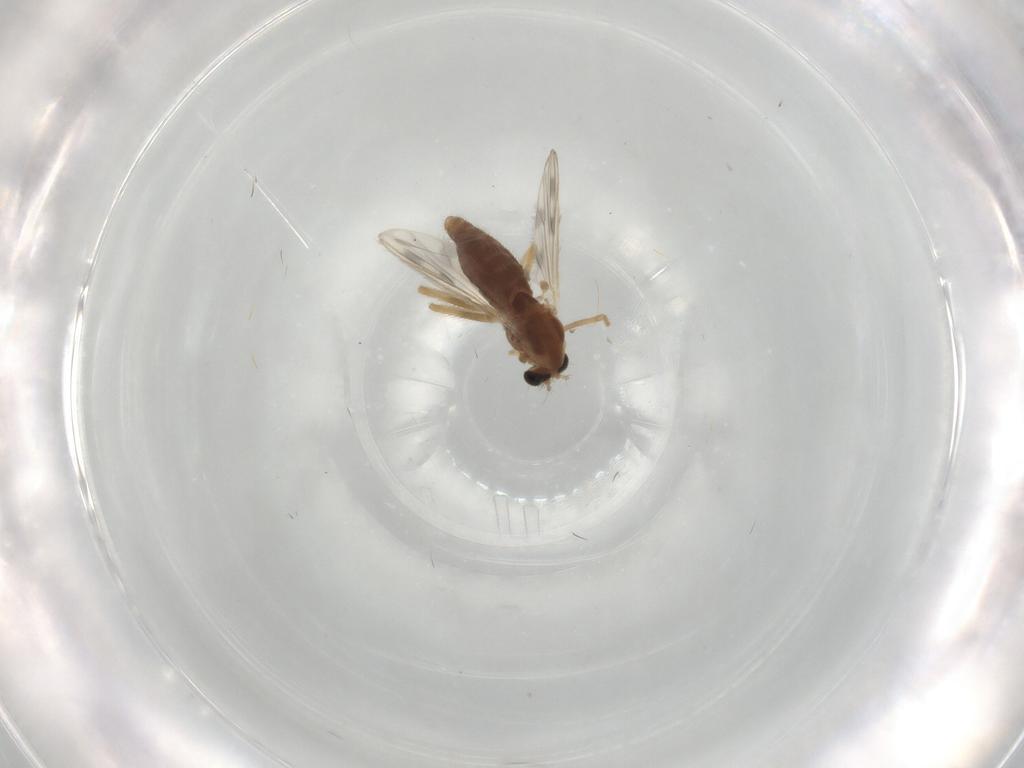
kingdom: Animalia
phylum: Arthropoda
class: Insecta
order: Diptera
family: Chironomidae
